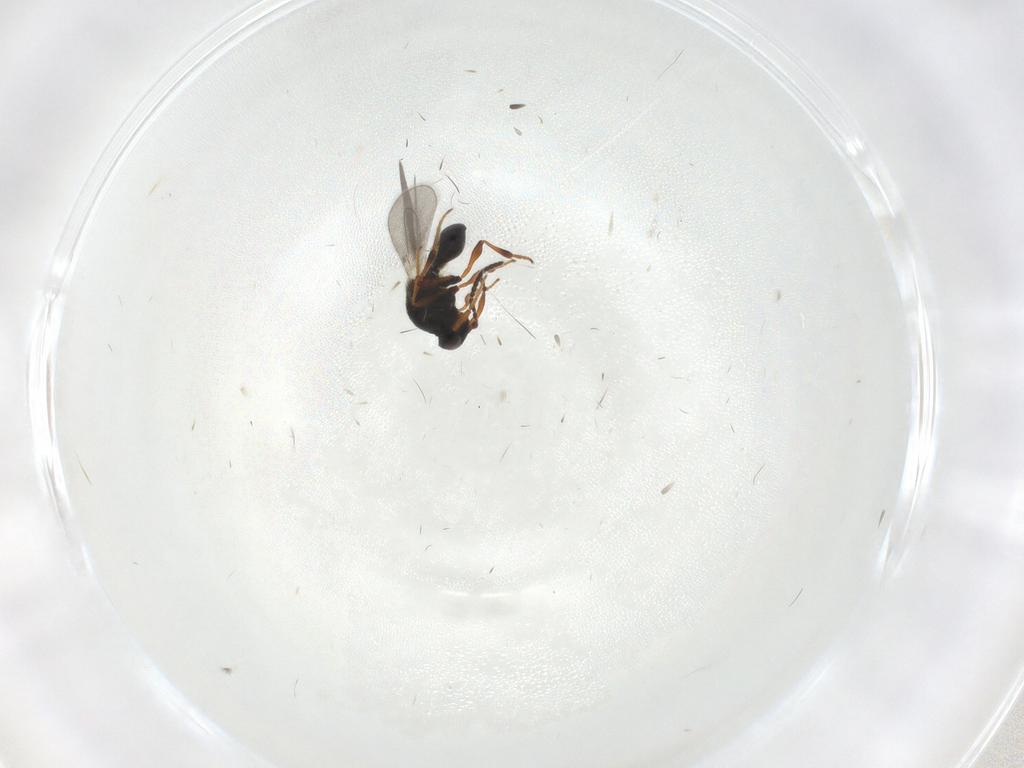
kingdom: Animalia
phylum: Arthropoda
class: Insecta
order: Hymenoptera
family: Platygastridae
